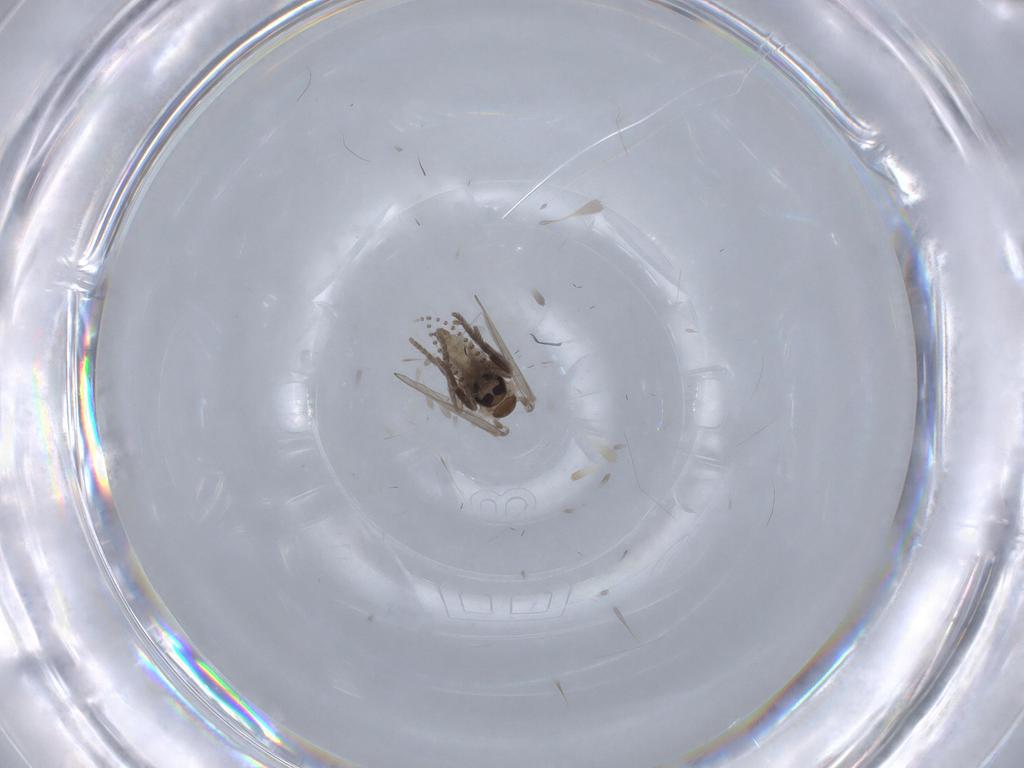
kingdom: Animalia
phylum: Arthropoda
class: Insecta
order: Diptera
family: Psychodidae
